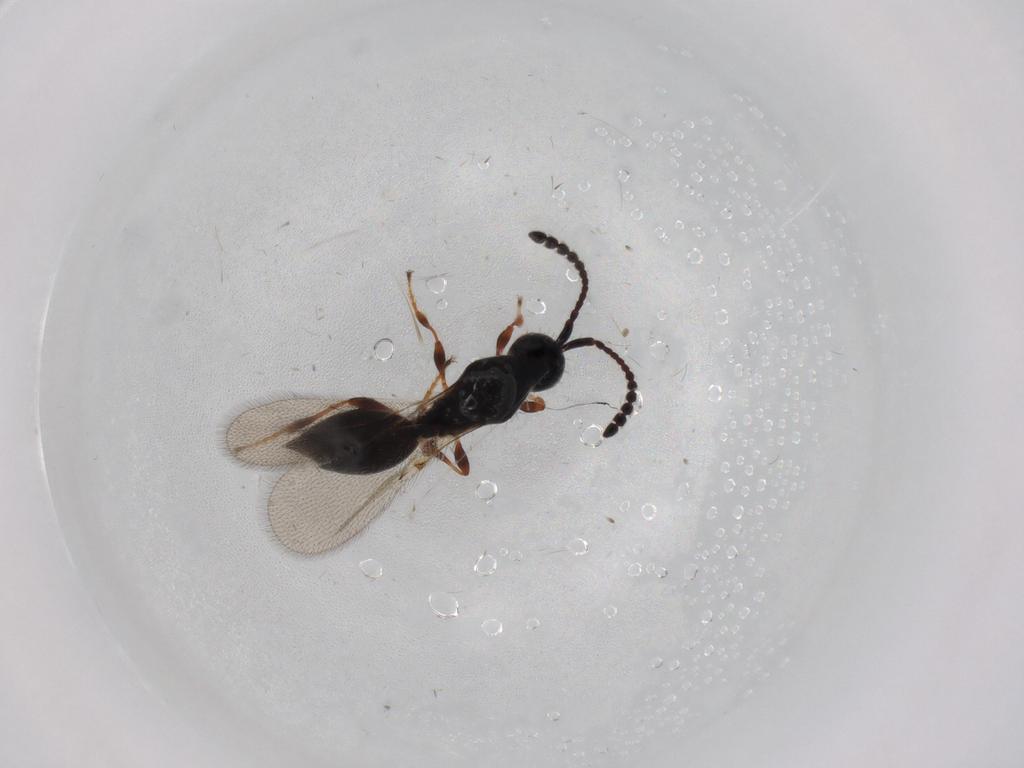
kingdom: Animalia
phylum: Arthropoda
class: Insecta
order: Hymenoptera
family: Diapriidae
